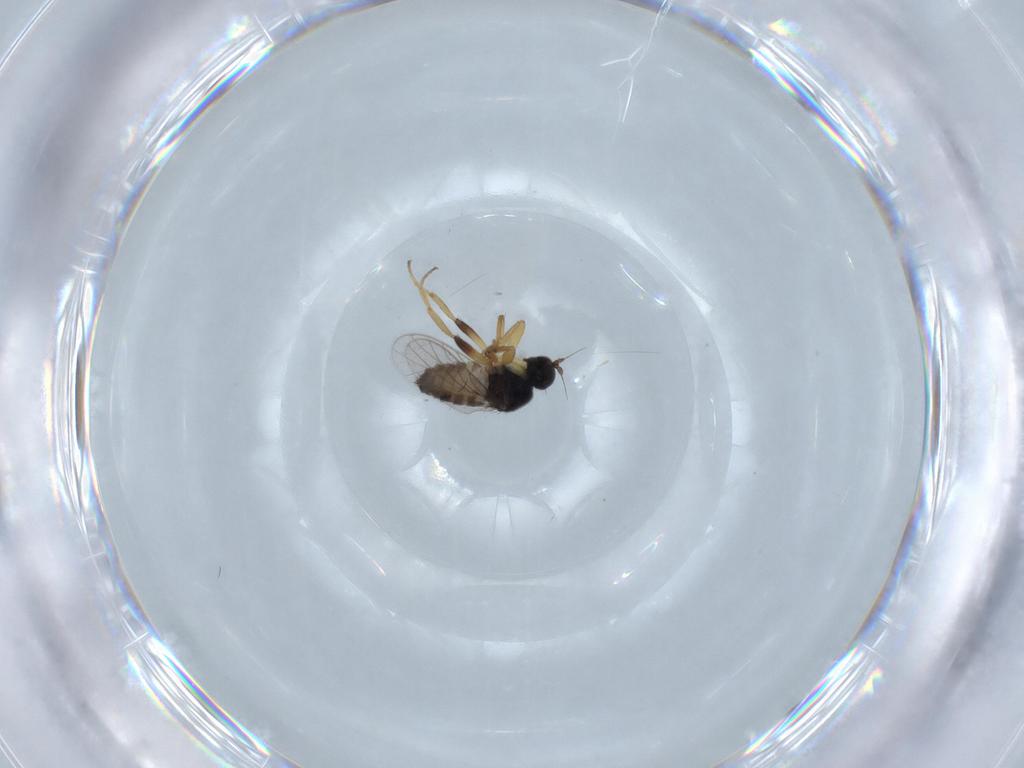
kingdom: Animalia
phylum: Arthropoda
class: Insecta
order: Diptera
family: Hybotidae
